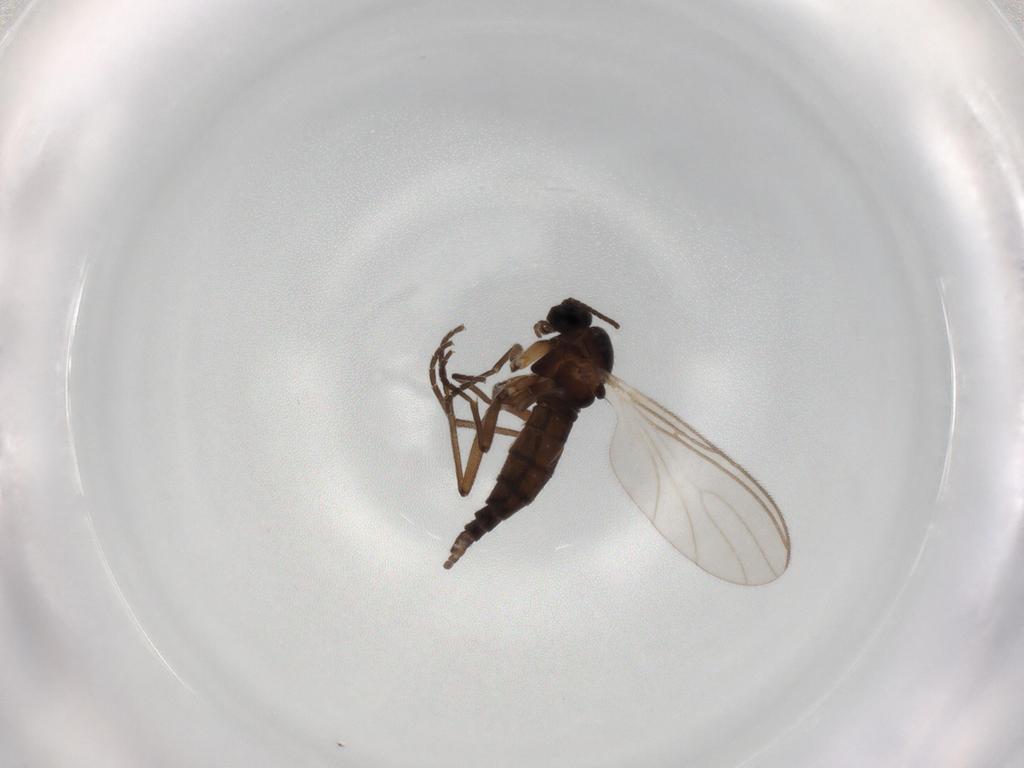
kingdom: Animalia
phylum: Arthropoda
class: Insecta
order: Diptera
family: Sciaridae
